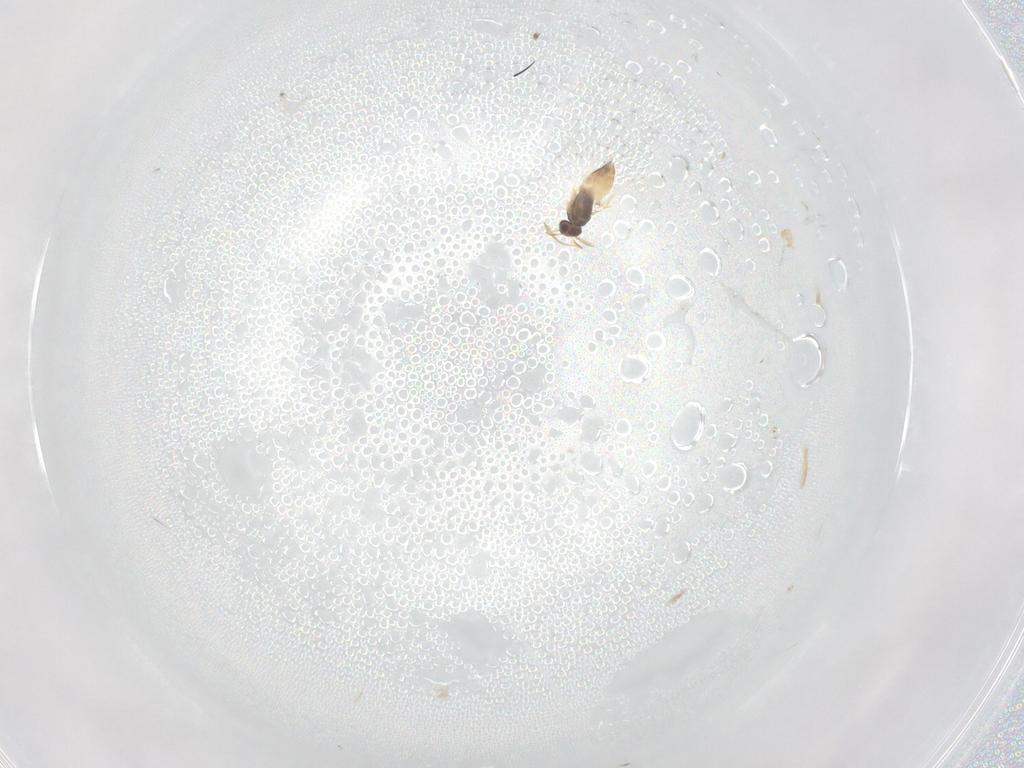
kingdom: Animalia
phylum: Arthropoda
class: Insecta
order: Hymenoptera
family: Mymaridae
